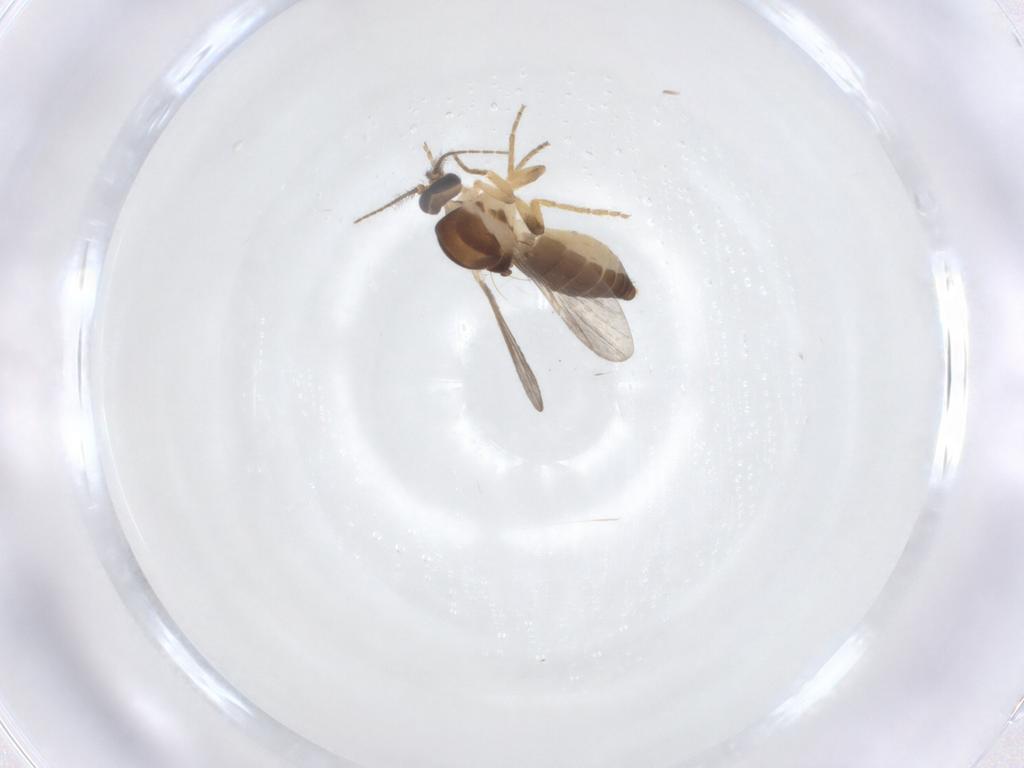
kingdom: Animalia
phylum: Arthropoda
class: Insecta
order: Diptera
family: Ceratopogonidae
